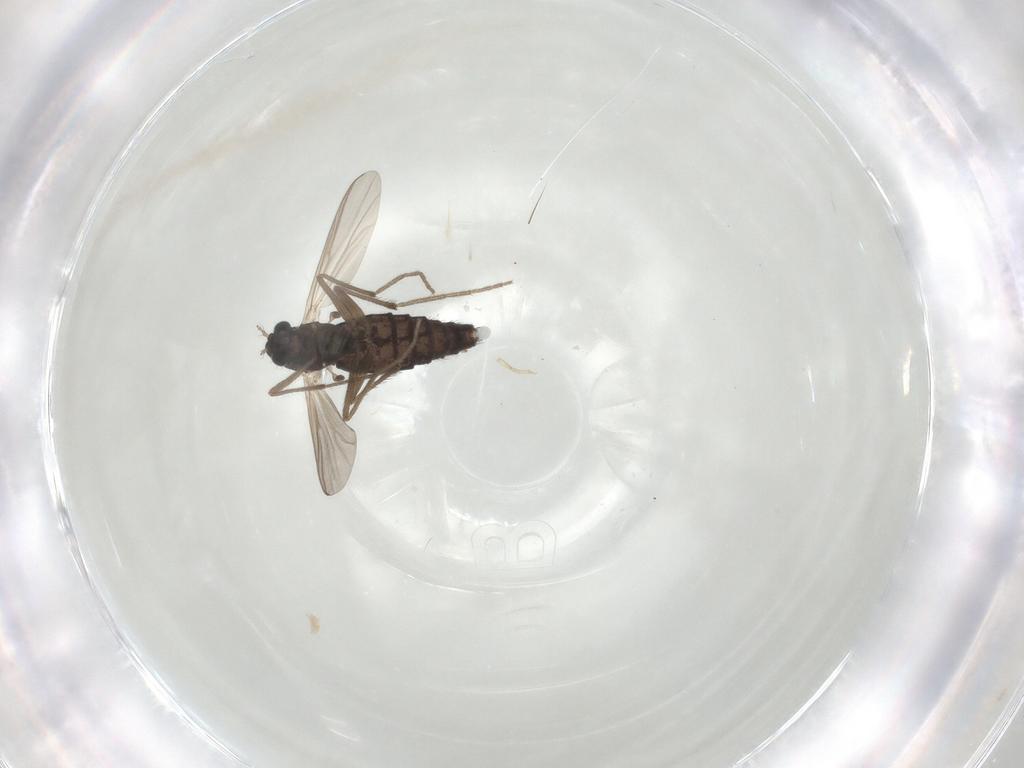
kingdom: Animalia
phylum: Arthropoda
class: Insecta
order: Diptera
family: Chironomidae
